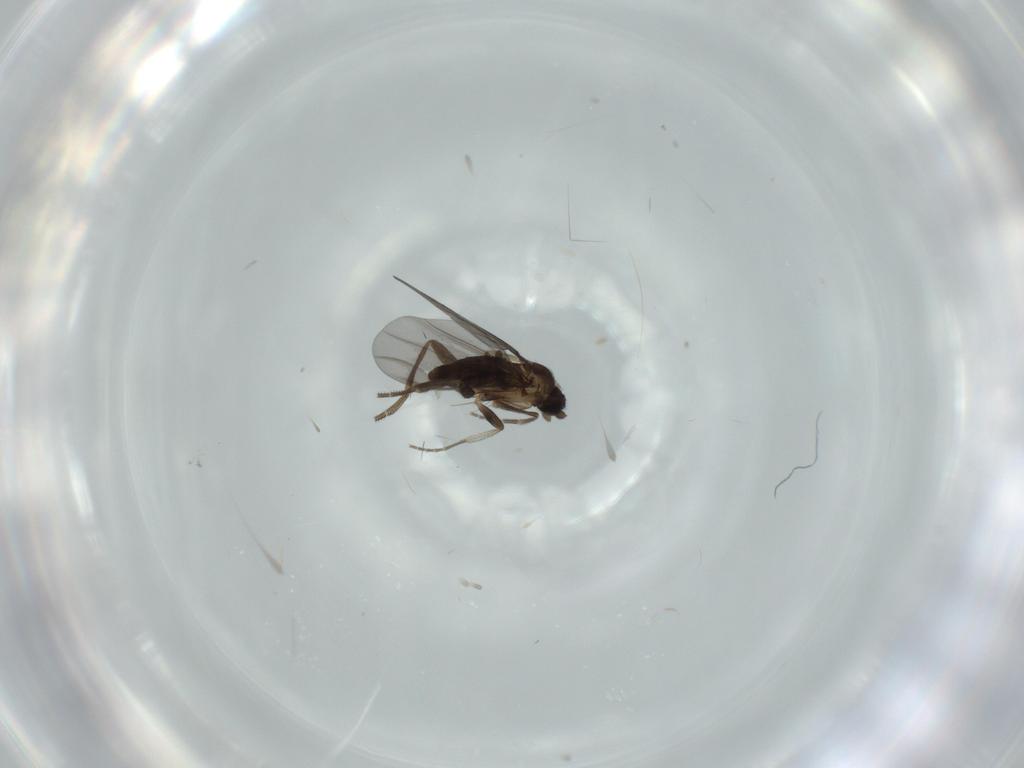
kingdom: Animalia
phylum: Arthropoda
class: Insecta
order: Diptera
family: Phoridae
